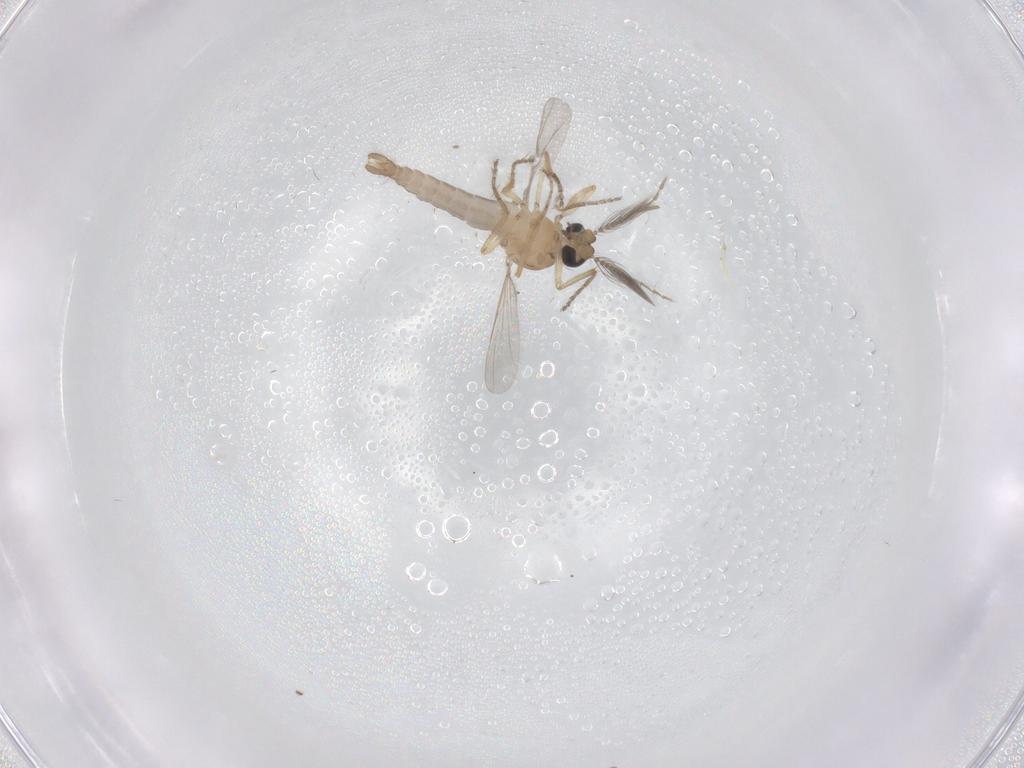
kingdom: Animalia
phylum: Arthropoda
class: Insecta
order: Diptera
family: Ceratopogonidae
